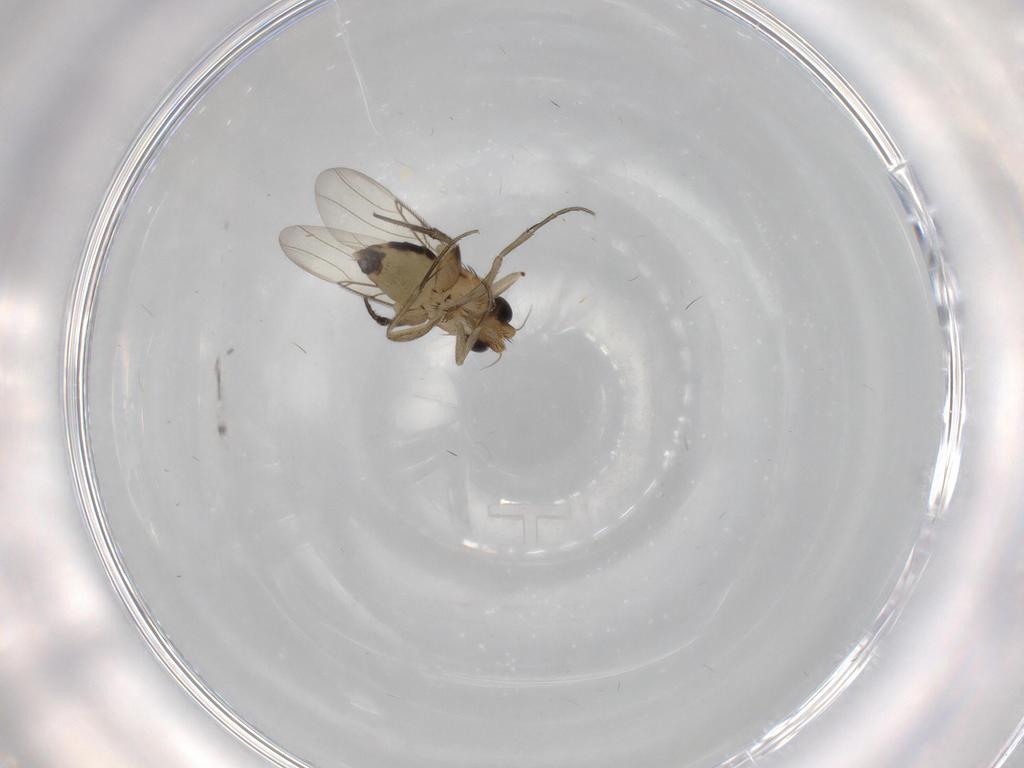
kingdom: Animalia
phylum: Arthropoda
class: Insecta
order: Diptera
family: Phoridae
